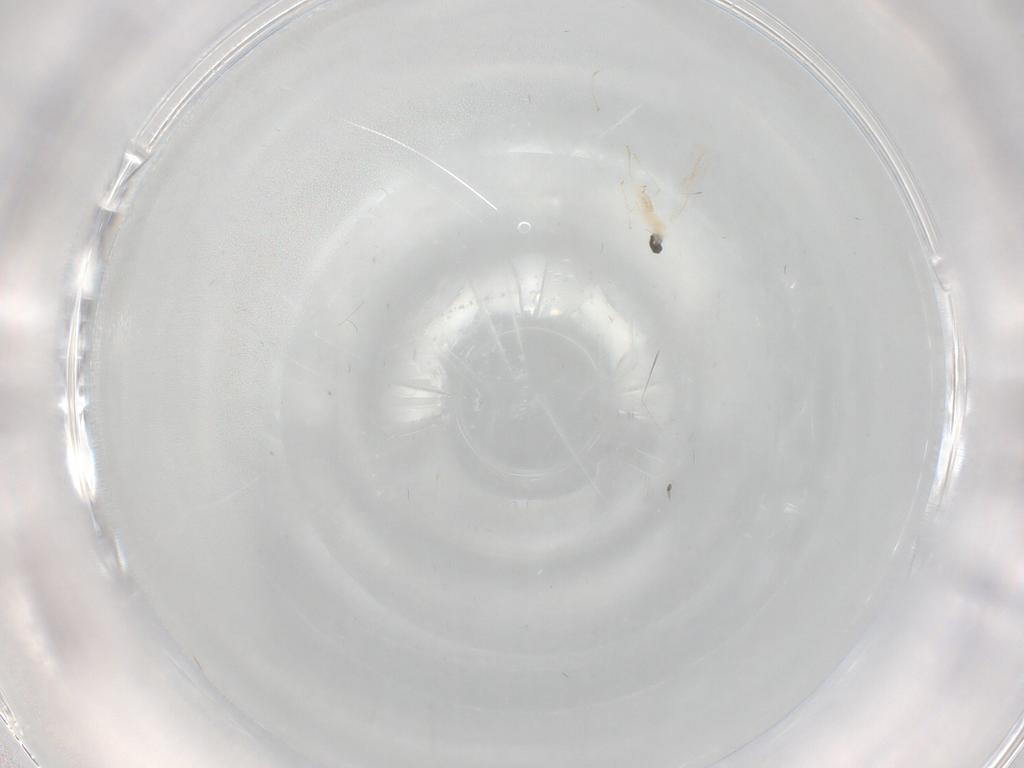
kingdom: Animalia
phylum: Arthropoda
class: Insecta
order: Diptera
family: Cecidomyiidae
